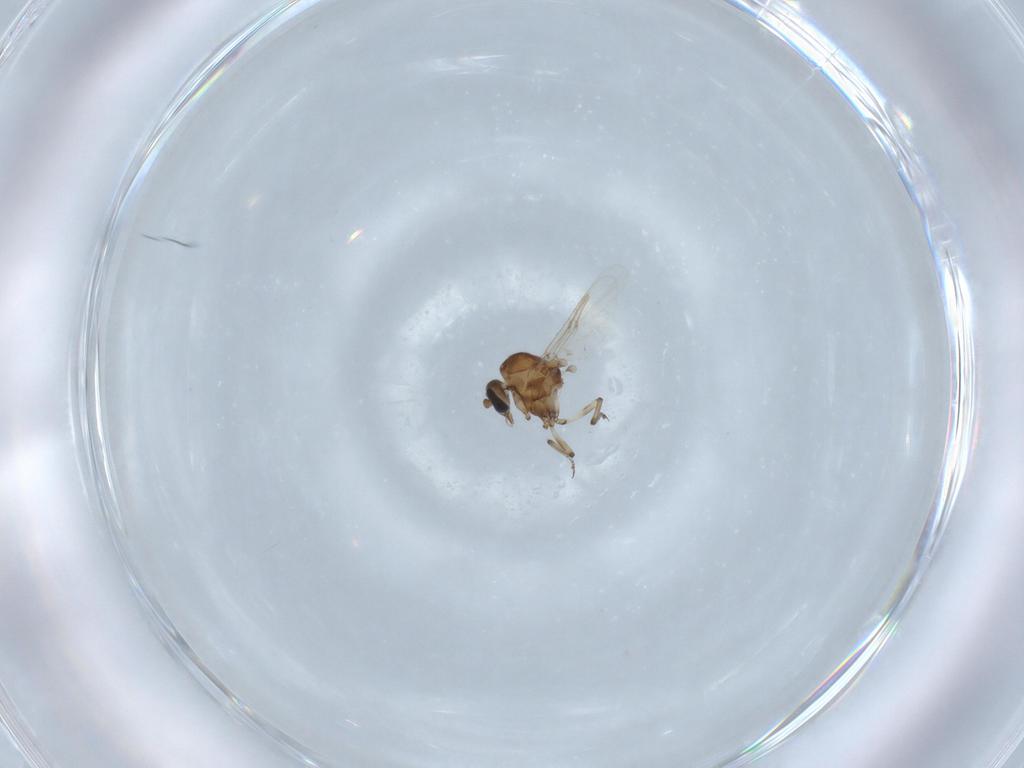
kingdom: Animalia
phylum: Arthropoda
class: Insecta
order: Diptera
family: Ceratopogonidae
